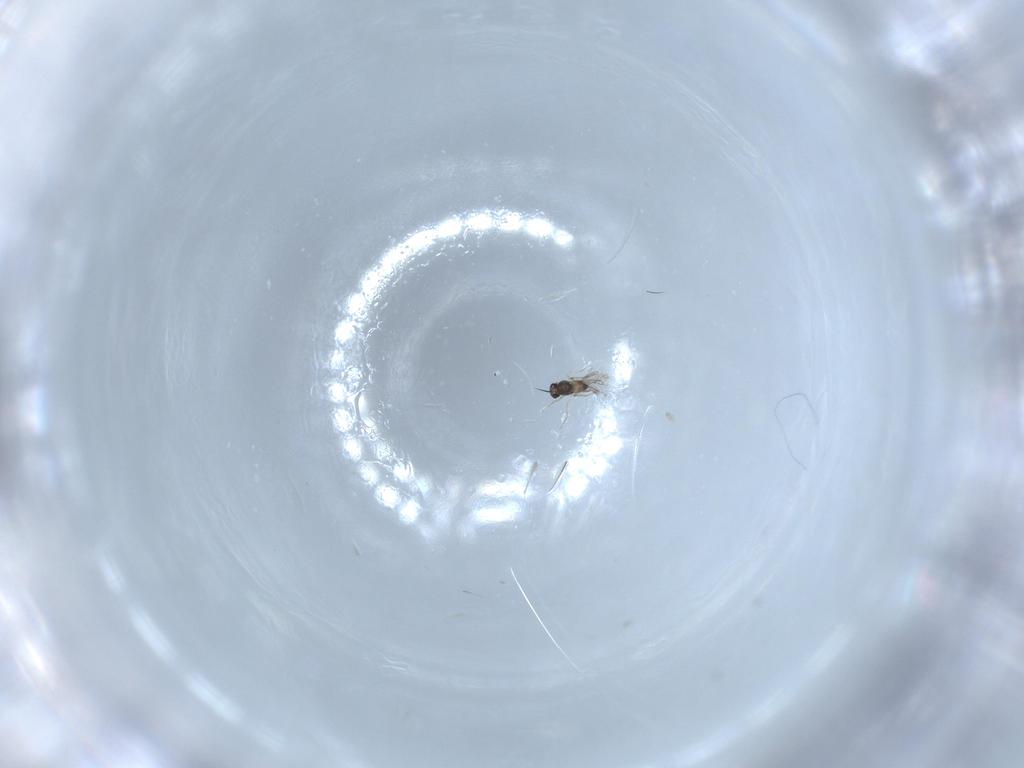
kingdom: Animalia
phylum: Arthropoda
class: Insecta
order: Hymenoptera
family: Mymaridae
